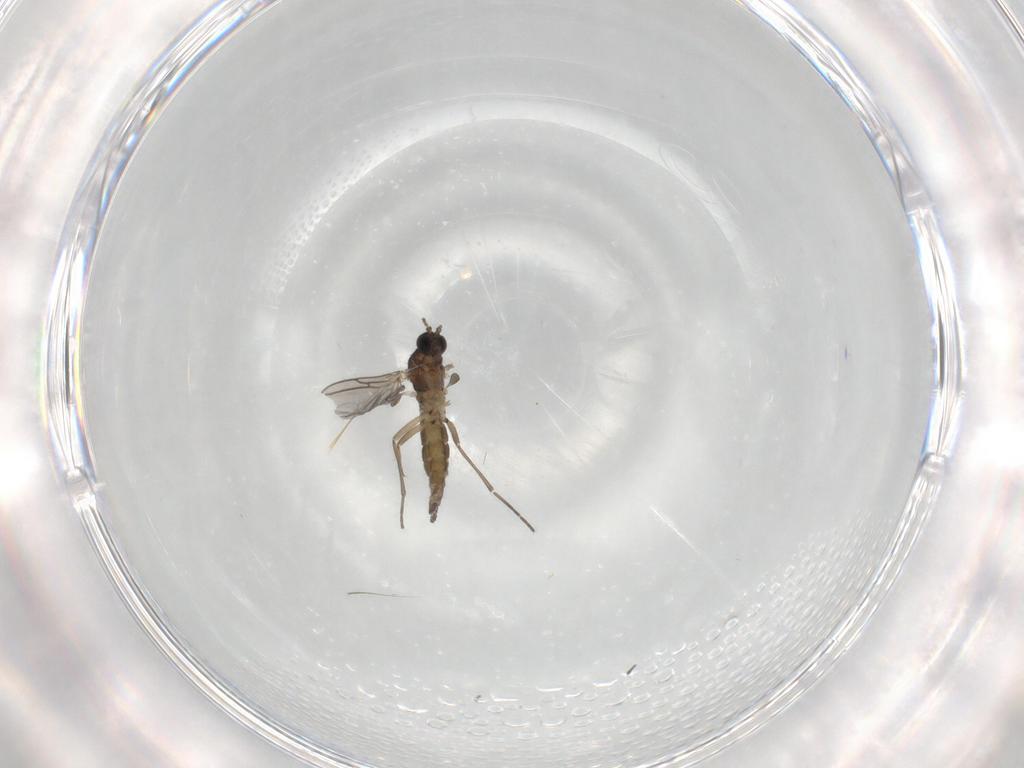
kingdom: Animalia
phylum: Arthropoda
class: Insecta
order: Diptera
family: Sciaridae
